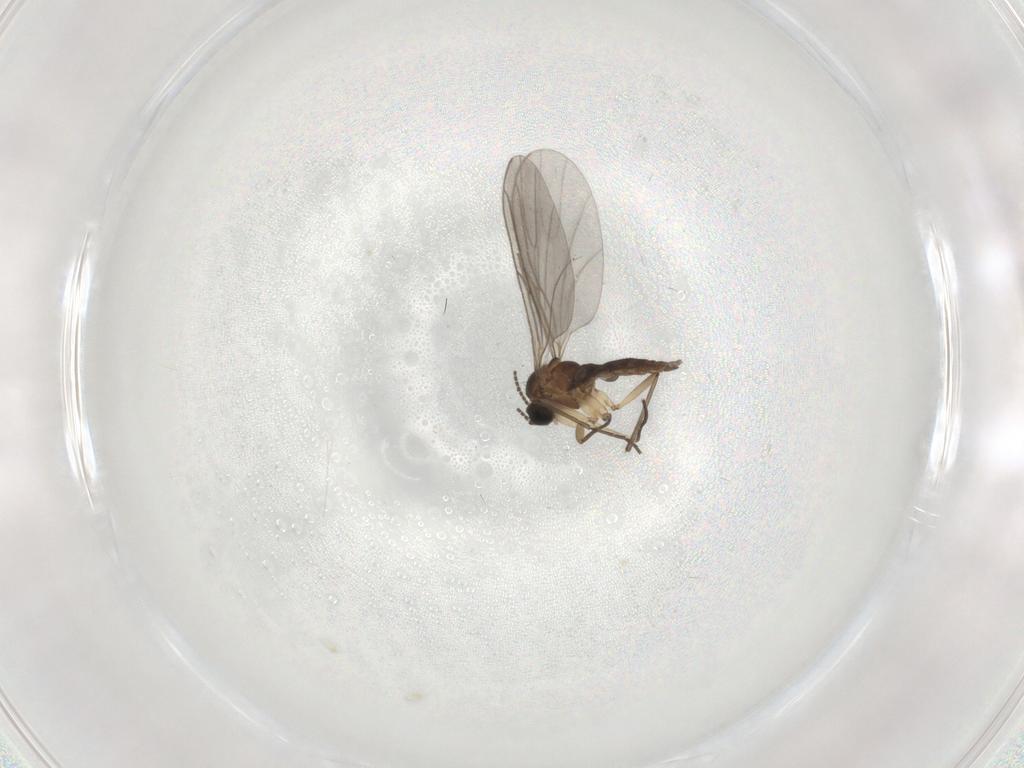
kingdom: Animalia
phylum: Arthropoda
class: Insecta
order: Diptera
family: Sciaridae
